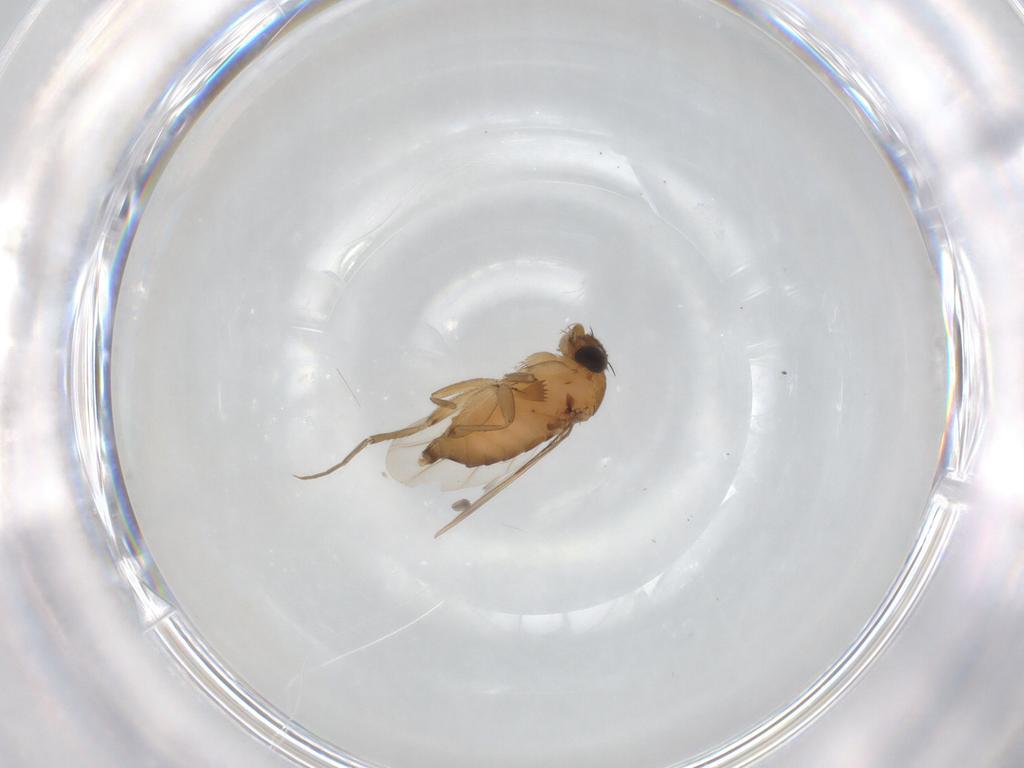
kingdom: Animalia
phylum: Arthropoda
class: Insecta
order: Diptera
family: Phoridae
